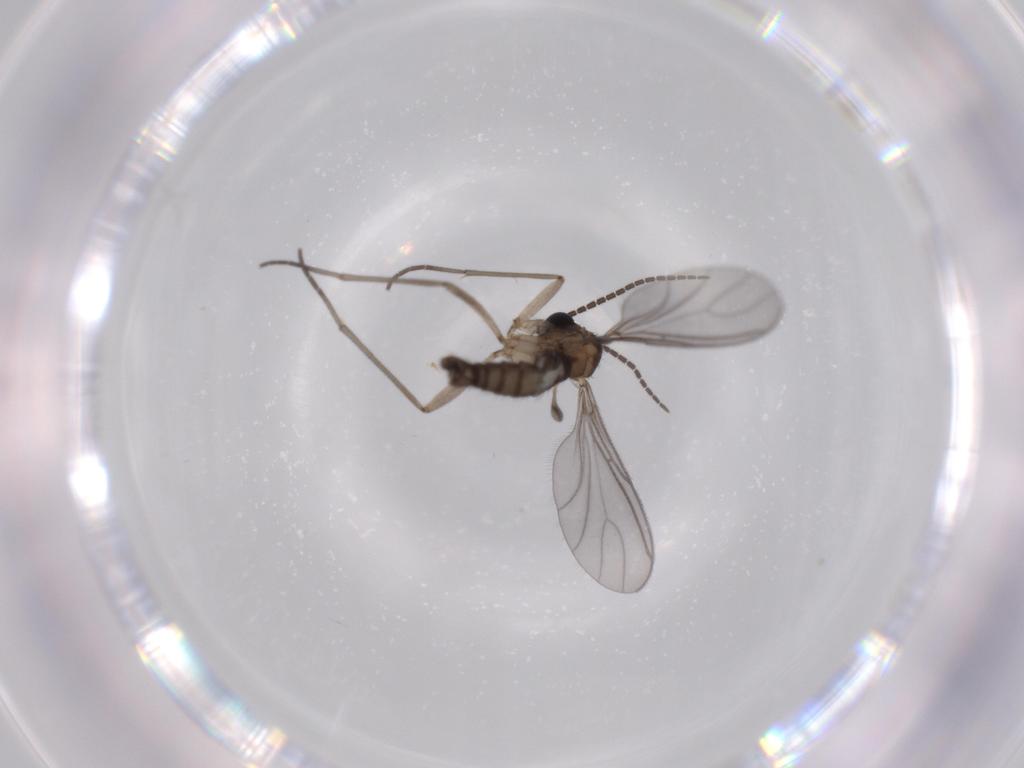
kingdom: Animalia
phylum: Arthropoda
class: Insecta
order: Diptera
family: Sciaridae
